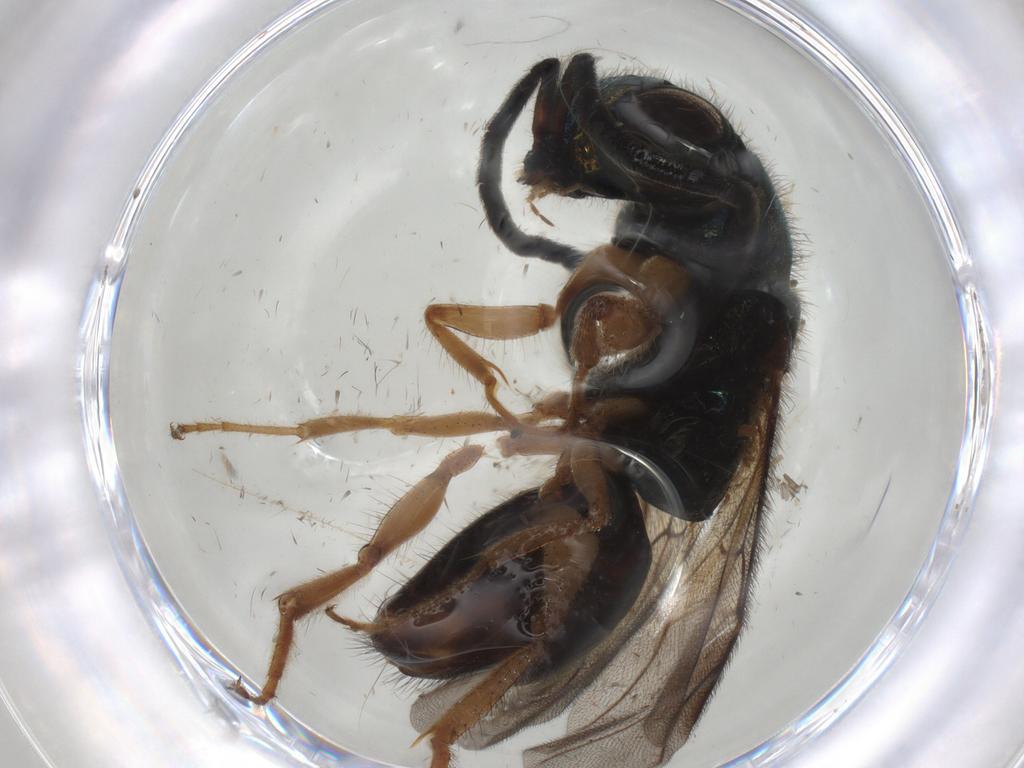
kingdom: Animalia
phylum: Arthropoda
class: Insecta
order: Hymenoptera
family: Chrysididae
